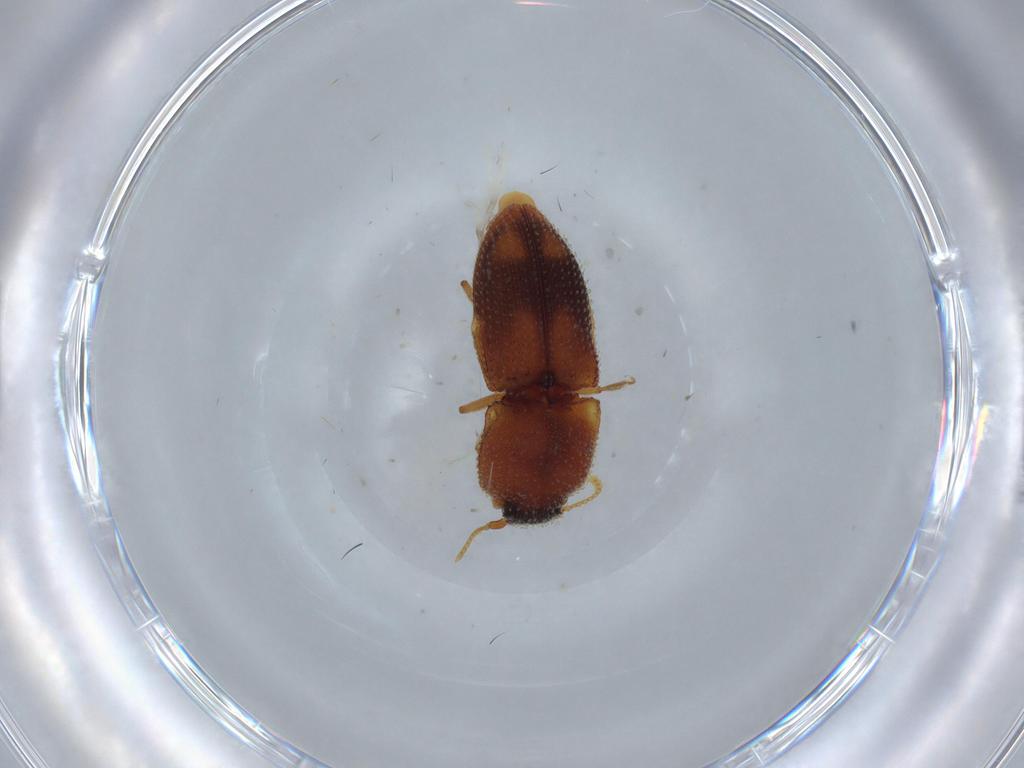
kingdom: Animalia
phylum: Arthropoda
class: Insecta
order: Coleoptera
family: Elateridae
